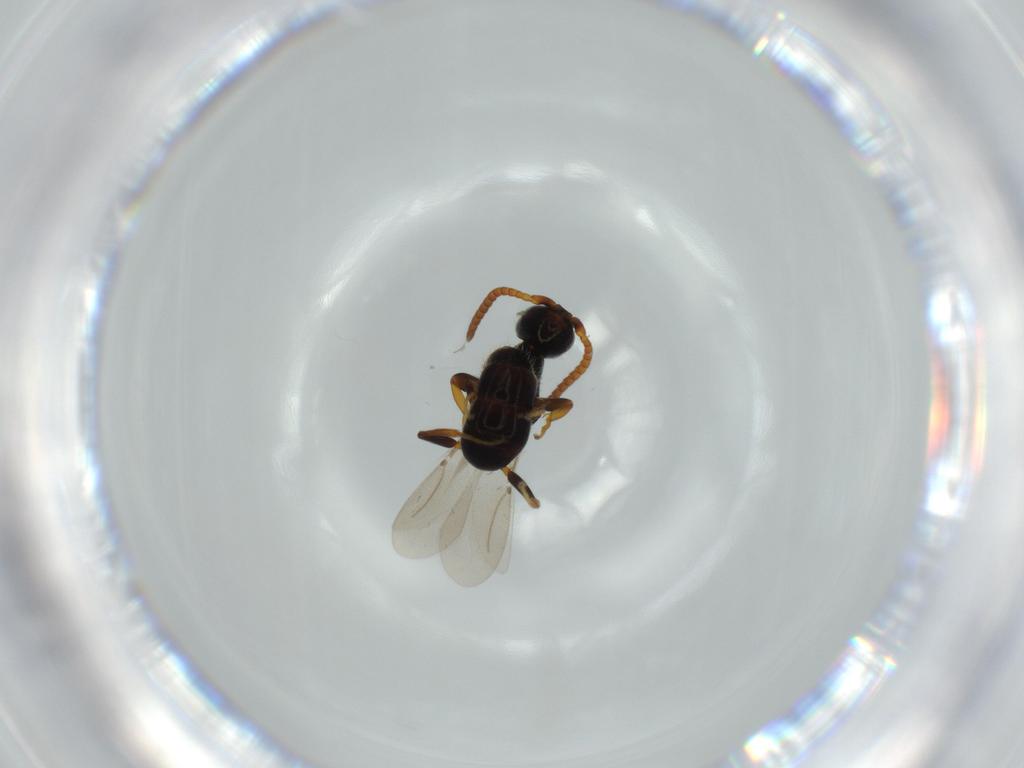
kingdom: Animalia
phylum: Arthropoda
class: Insecta
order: Hymenoptera
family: Bethylidae
